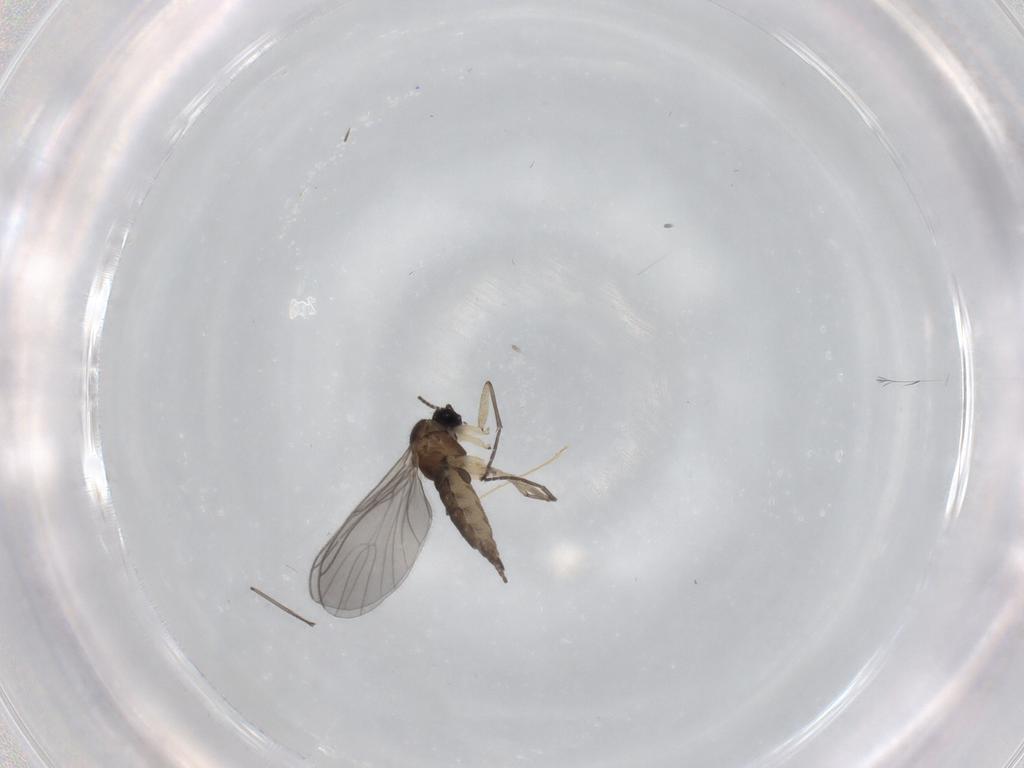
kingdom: Animalia
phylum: Arthropoda
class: Insecta
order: Diptera
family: Sciaridae
